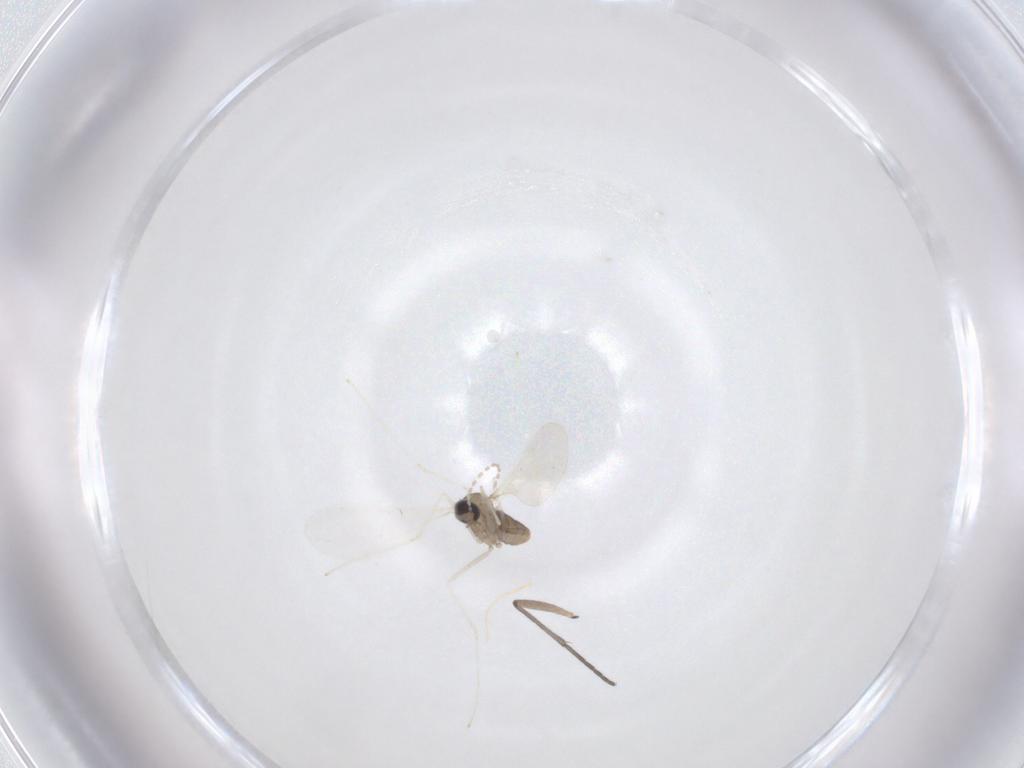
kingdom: Animalia
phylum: Arthropoda
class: Insecta
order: Diptera
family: Cecidomyiidae
